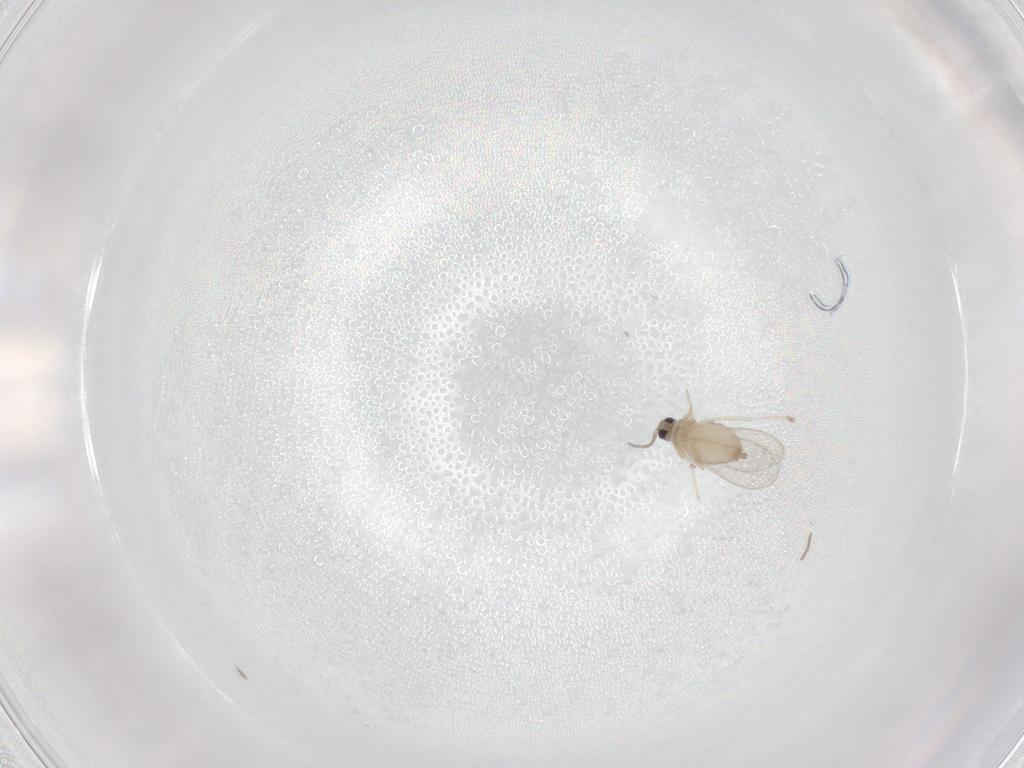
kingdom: Animalia
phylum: Arthropoda
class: Insecta
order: Diptera
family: Cecidomyiidae
